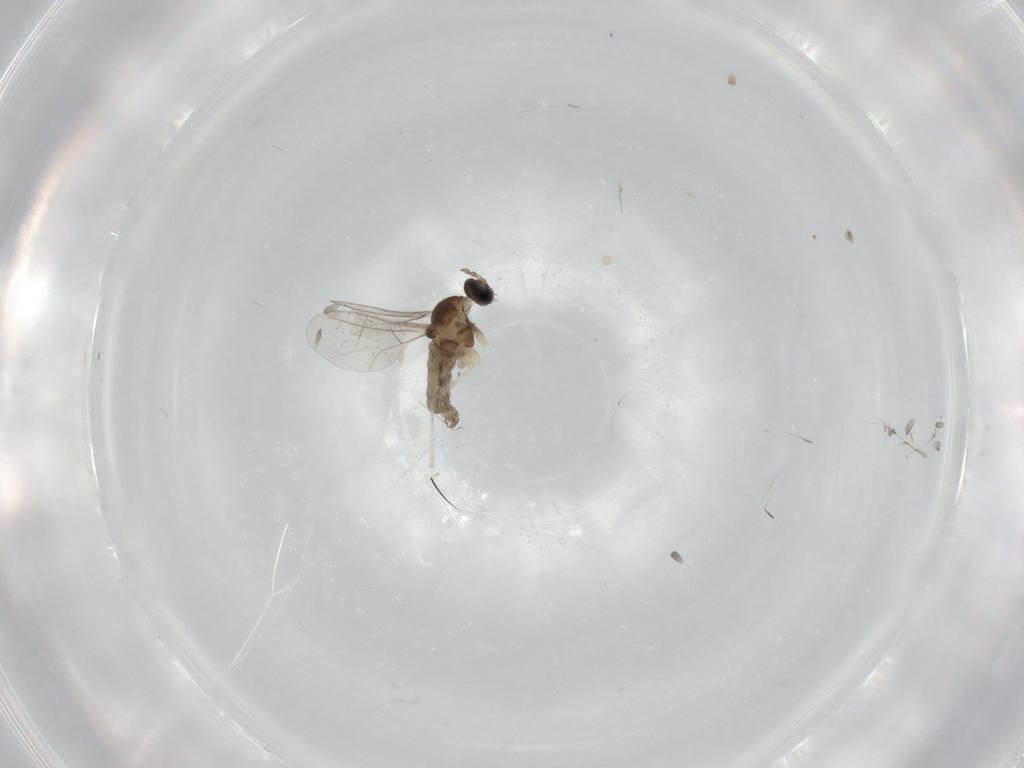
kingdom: Animalia
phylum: Arthropoda
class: Insecta
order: Diptera
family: Cecidomyiidae
